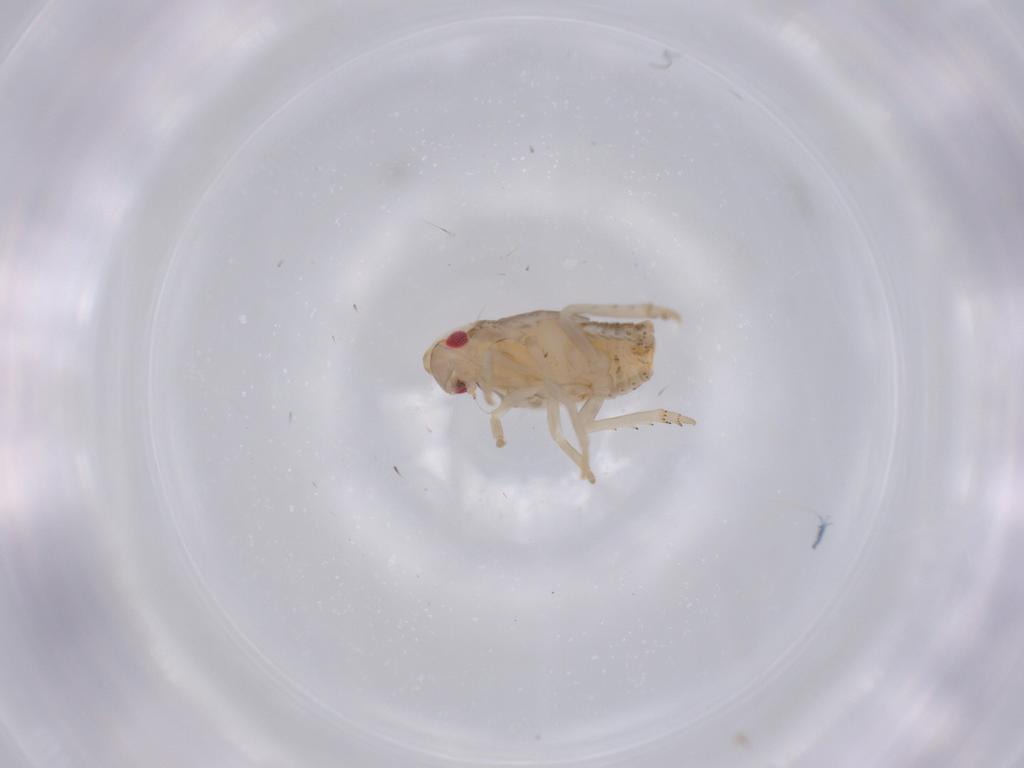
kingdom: Animalia
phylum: Arthropoda
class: Insecta
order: Hemiptera
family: Flatidae
